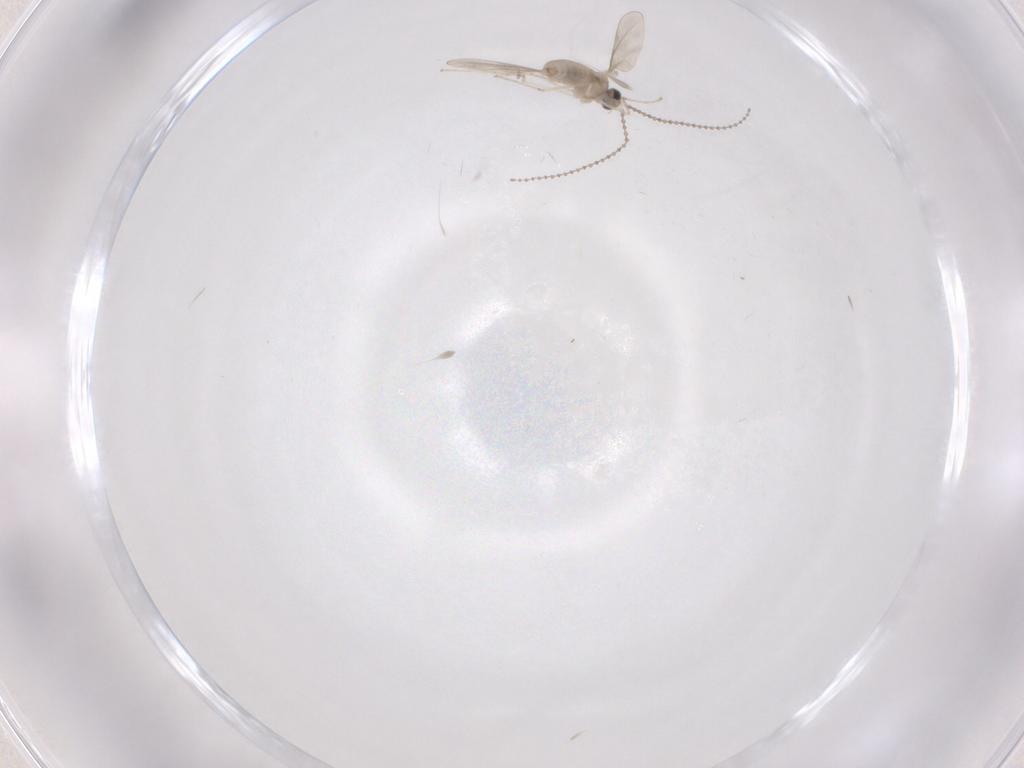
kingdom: Animalia
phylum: Arthropoda
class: Insecta
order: Diptera
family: Cecidomyiidae
